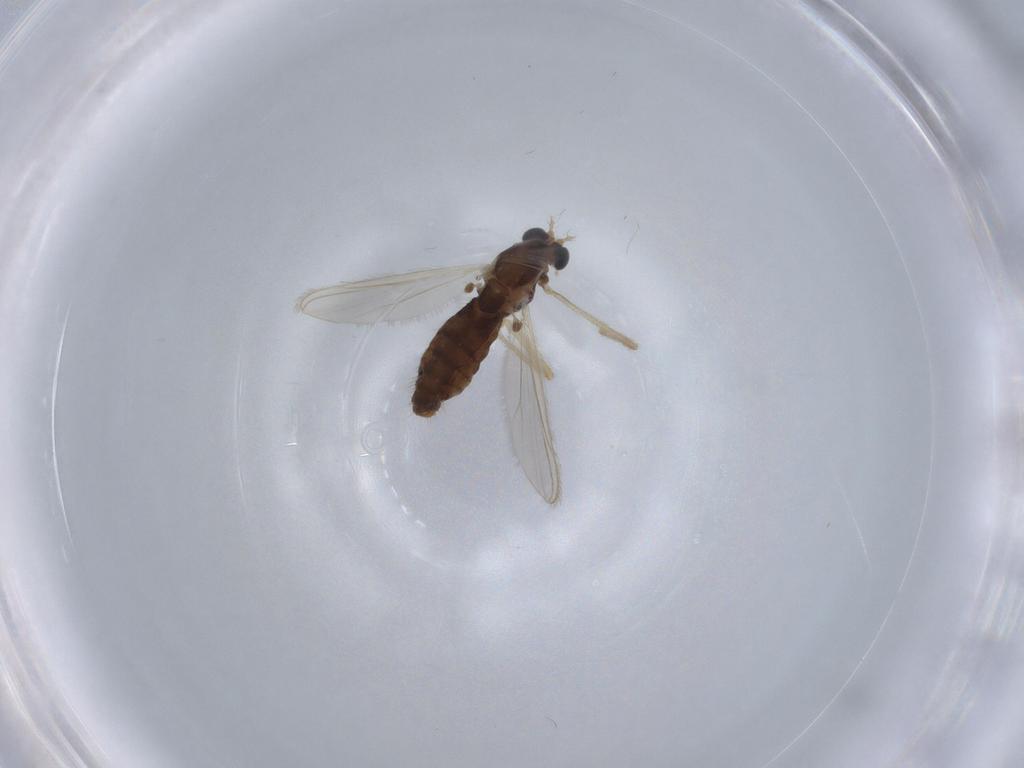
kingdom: Animalia
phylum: Arthropoda
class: Insecta
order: Diptera
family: Chironomidae
